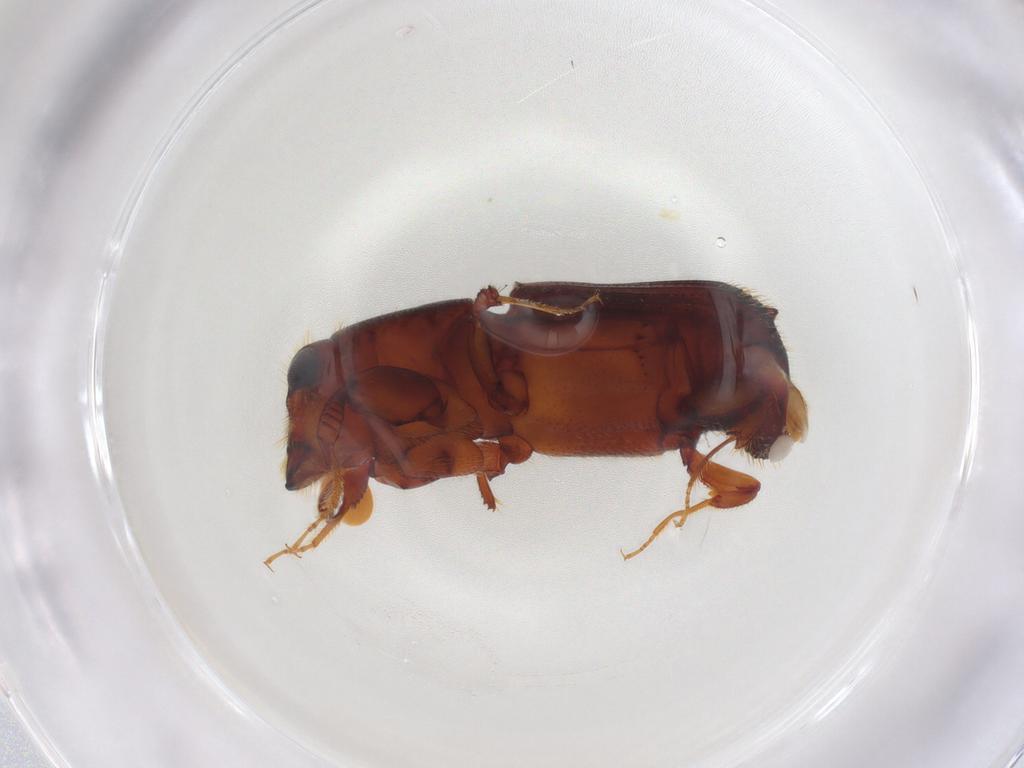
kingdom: Animalia
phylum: Arthropoda
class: Insecta
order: Coleoptera
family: Curculionidae
